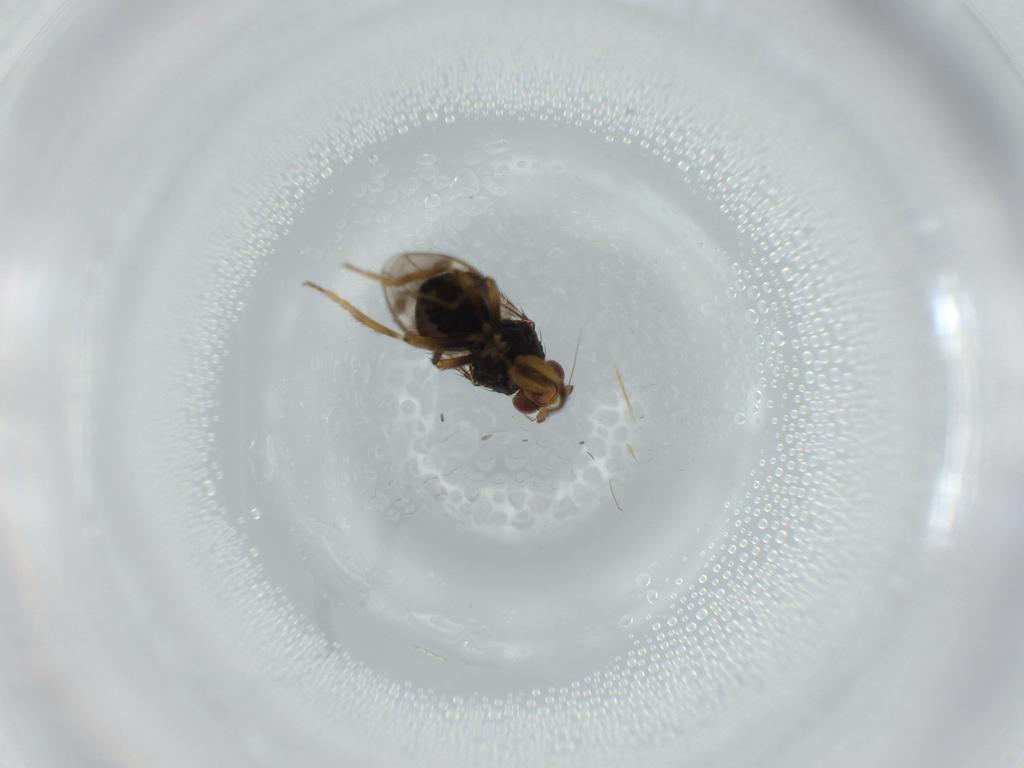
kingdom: Animalia
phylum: Arthropoda
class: Insecta
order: Diptera
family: Sphaeroceridae
